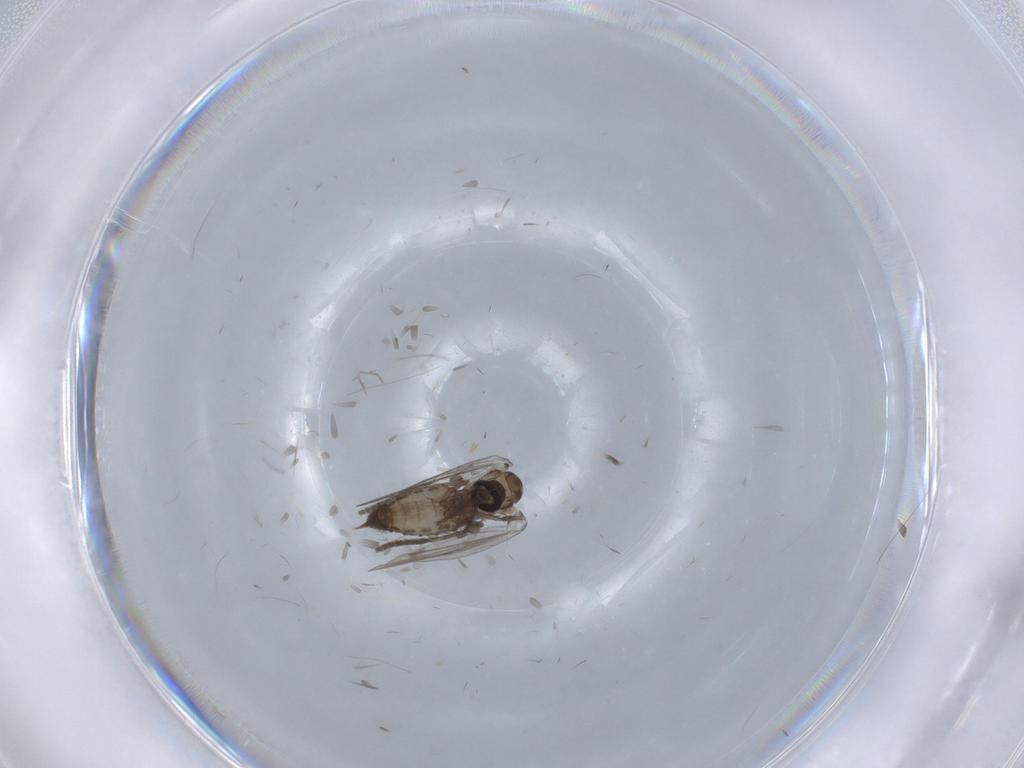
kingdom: Animalia
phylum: Arthropoda
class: Insecta
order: Diptera
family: Drosophilidae
